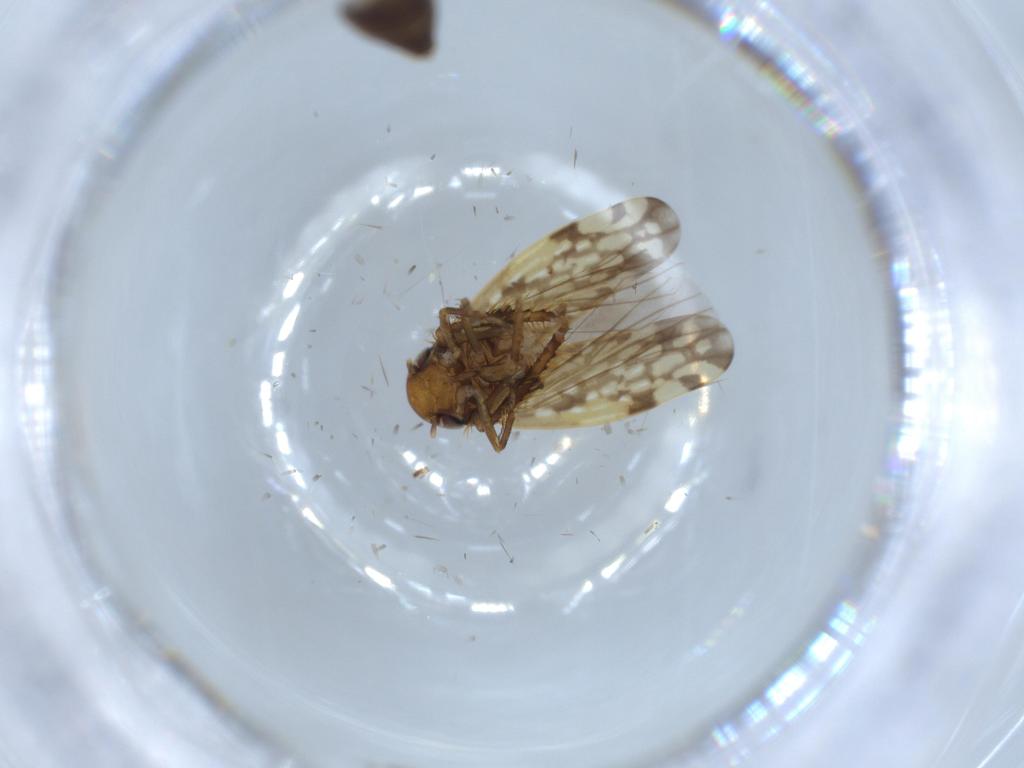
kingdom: Animalia
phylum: Arthropoda
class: Insecta
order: Hemiptera
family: Cicadellidae
